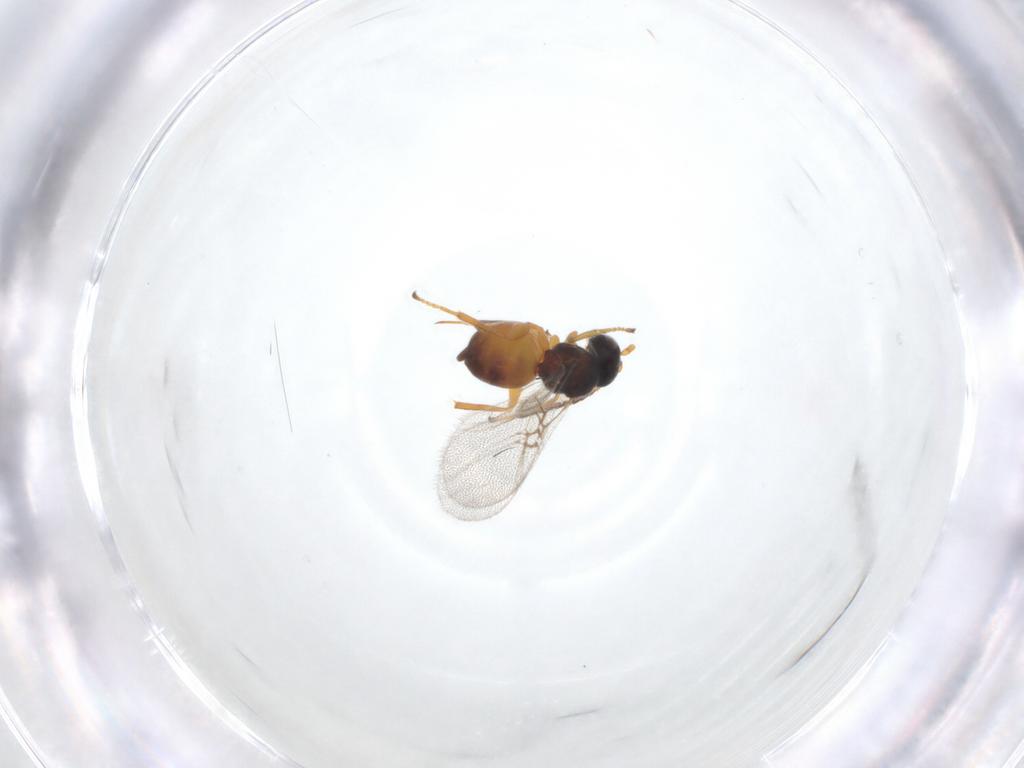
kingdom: Animalia
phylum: Arthropoda
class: Insecta
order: Hymenoptera
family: Cynipidae
